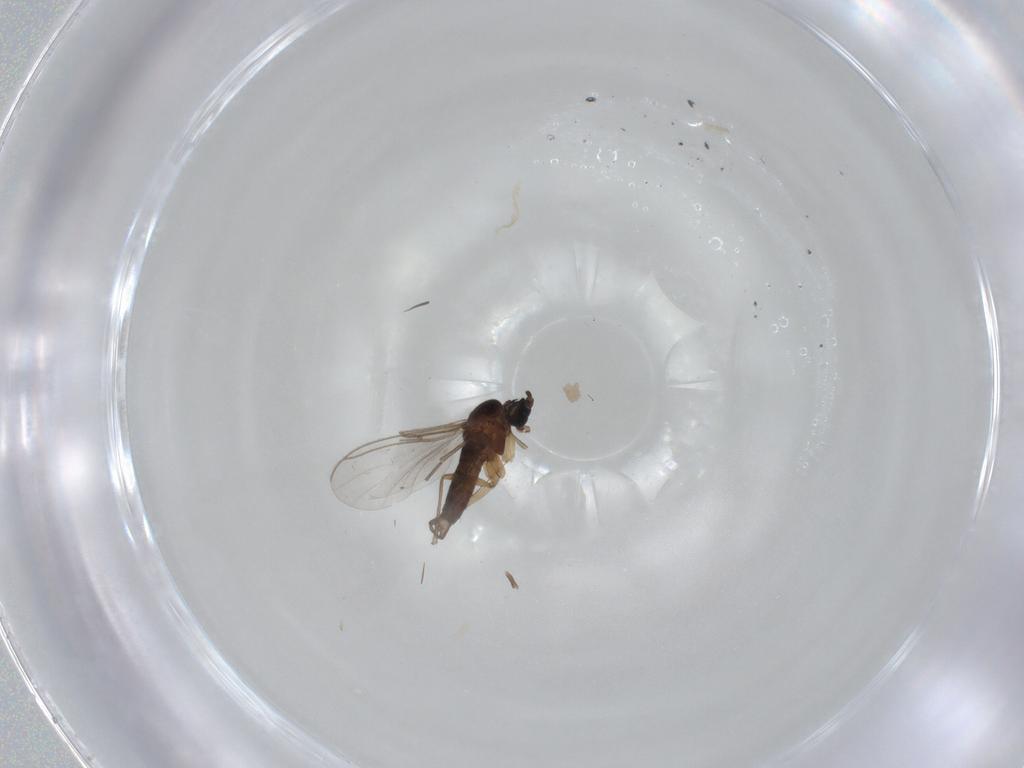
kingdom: Animalia
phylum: Arthropoda
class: Insecta
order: Diptera
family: Sciaridae
